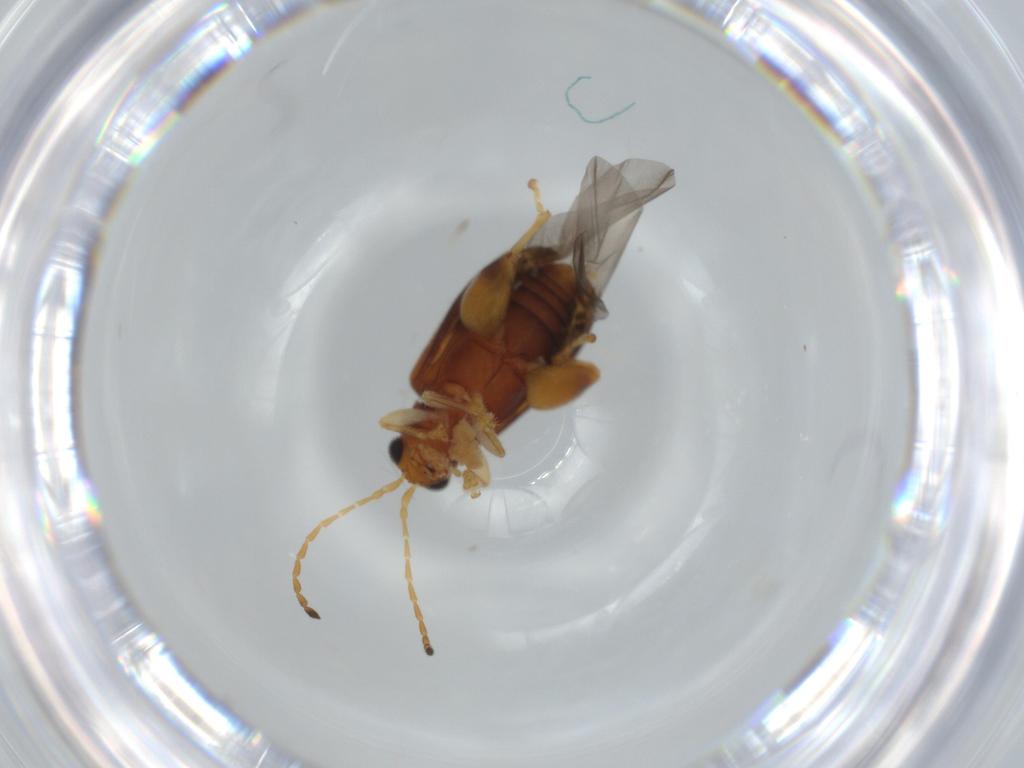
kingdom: Animalia
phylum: Arthropoda
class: Insecta
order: Coleoptera
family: Chrysomelidae
